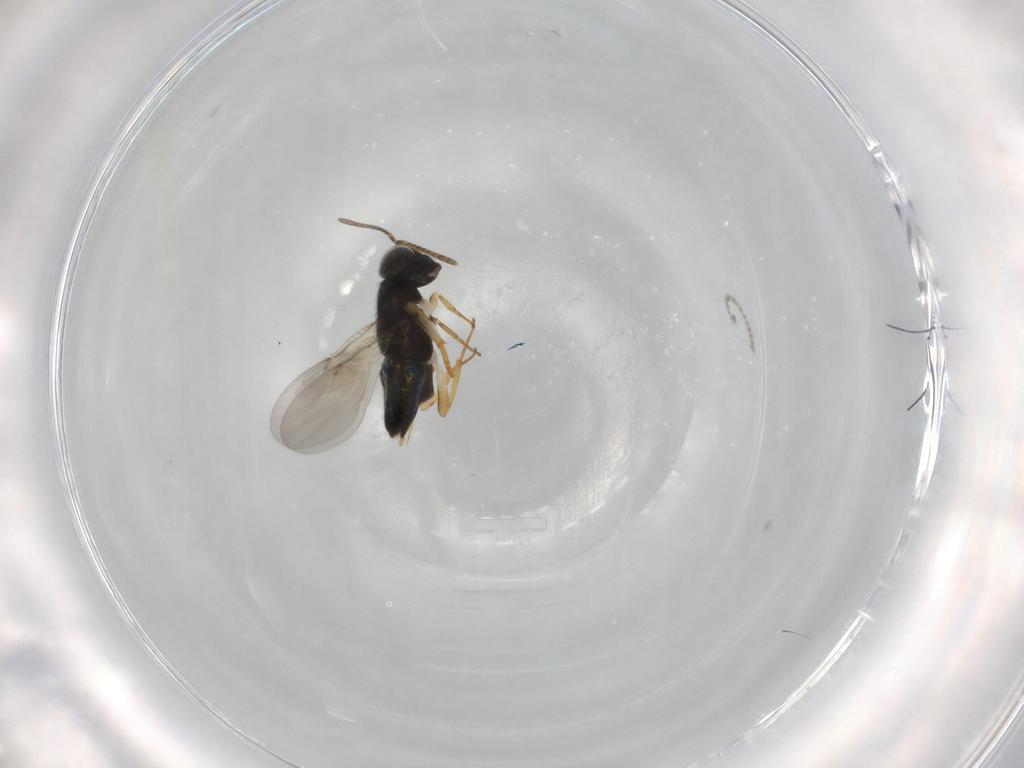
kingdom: Animalia
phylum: Arthropoda
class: Insecta
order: Hymenoptera
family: Encyrtidae
